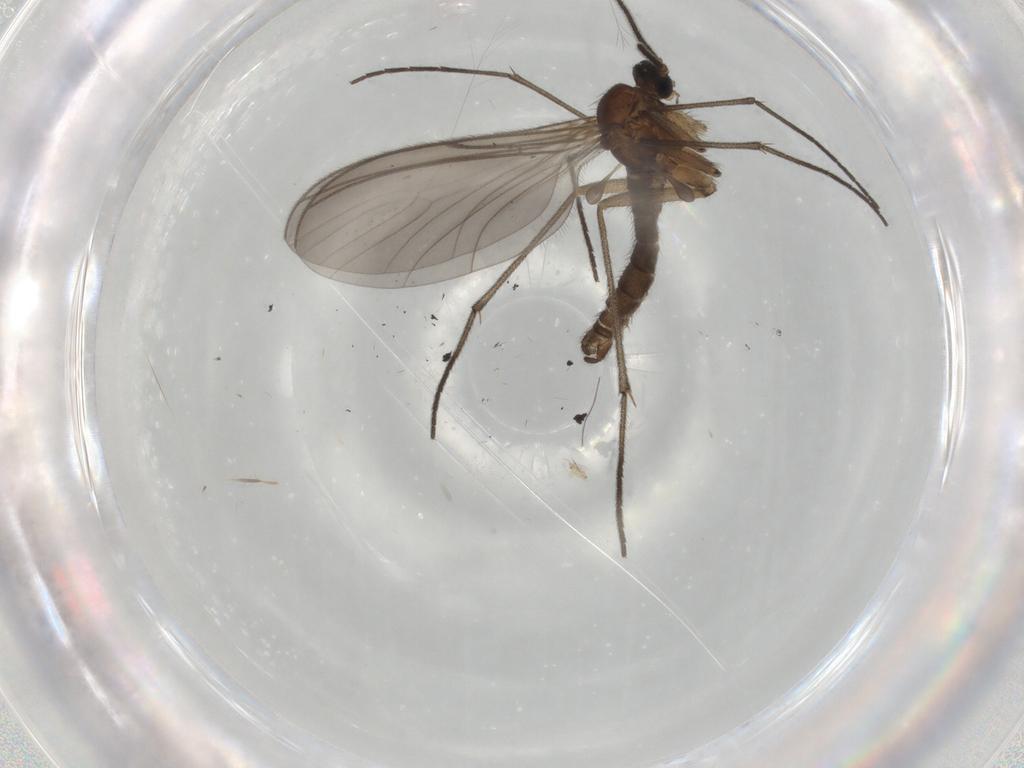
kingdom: Animalia
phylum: Arthropoda
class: Insecta
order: Diptera
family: Sciaridae
